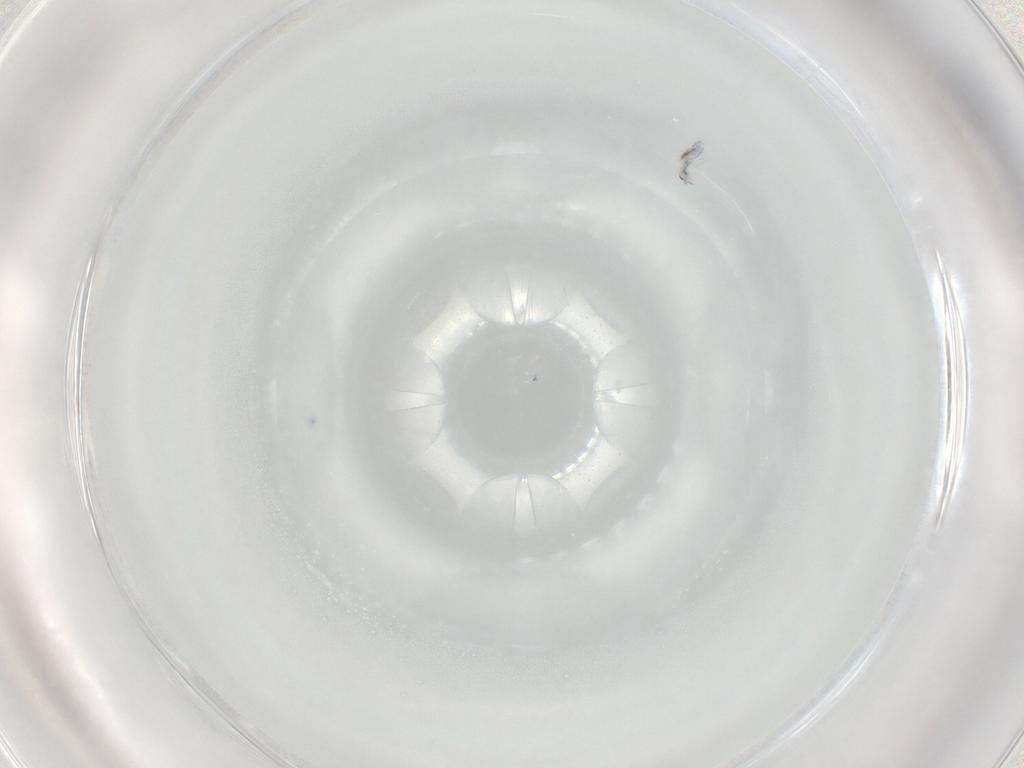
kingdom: Animalia
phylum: Arthropoda
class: Collembola
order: Entomobryomorpha
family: Entomobryidae
